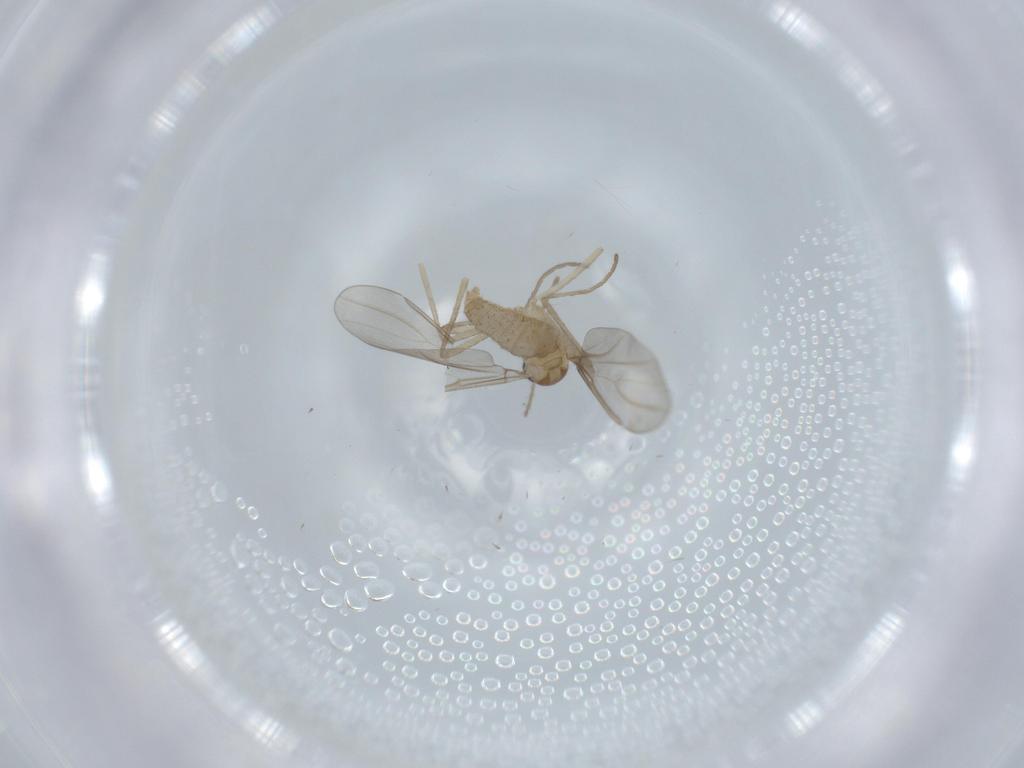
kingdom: Animalia
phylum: Arthropoda
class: Insecta
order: Diptera
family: Cecidomyiidae
